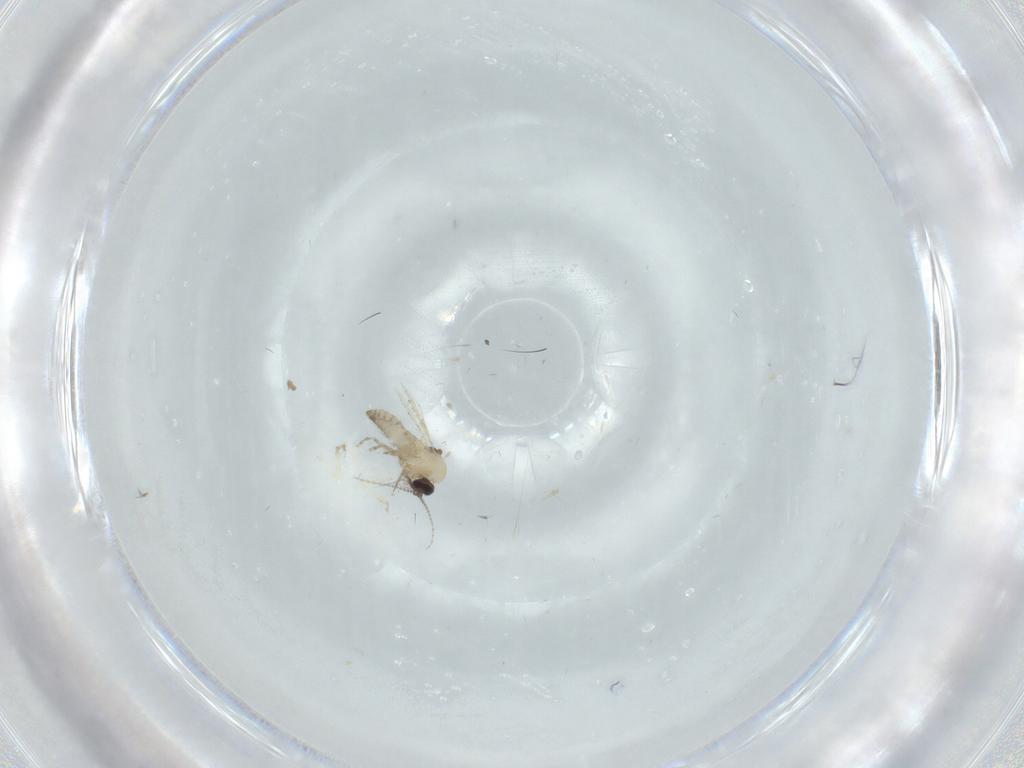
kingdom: Animalia
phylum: Arthropoda
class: Insecta
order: Diptera
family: Ceratopogonidae
